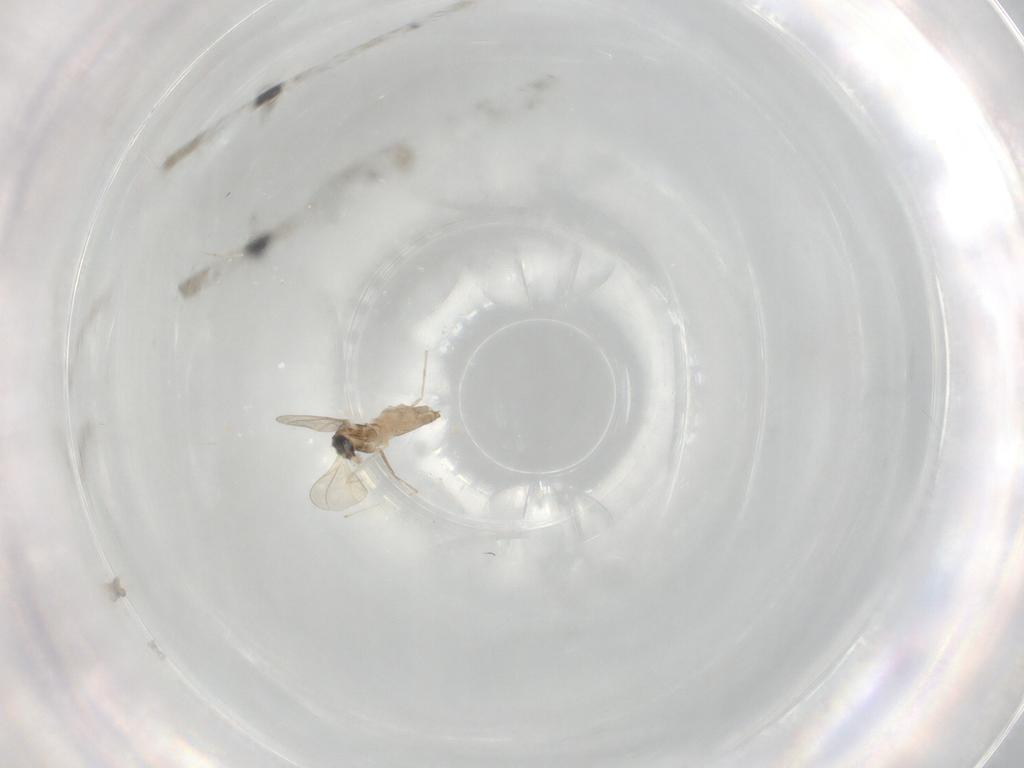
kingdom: Animalia
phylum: Arthropoda
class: Insecta
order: Diptera
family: Cecidomyiidae
